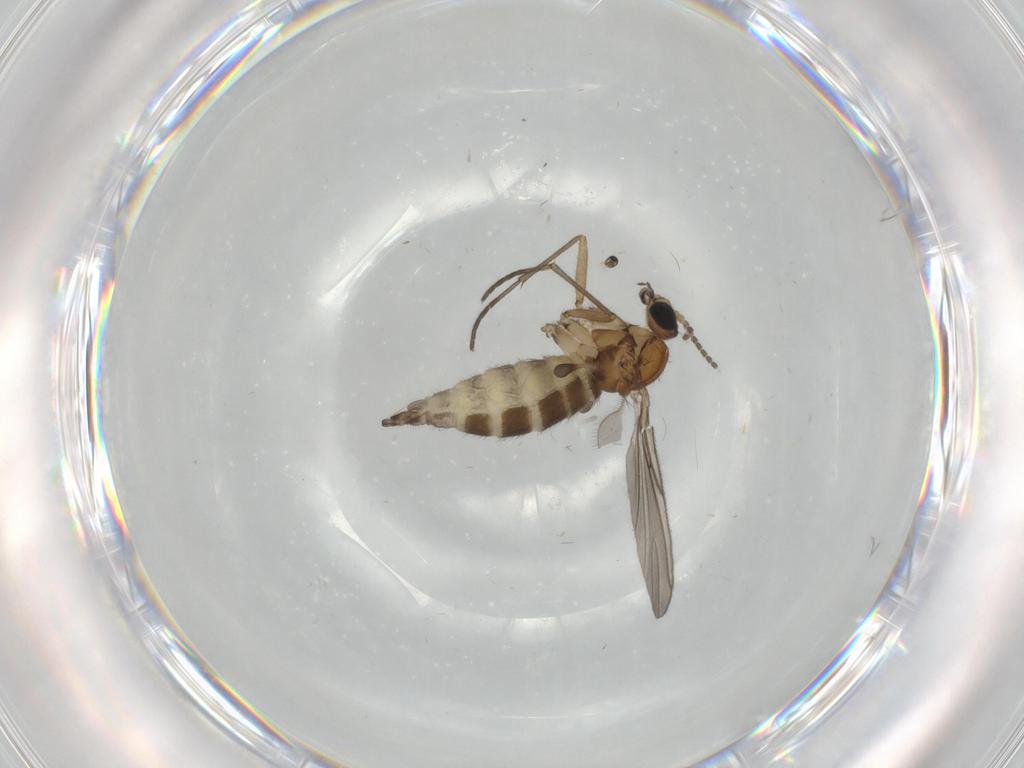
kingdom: Animalia
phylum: Arthropoda
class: Insecta
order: Diptera
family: Sciaridae
